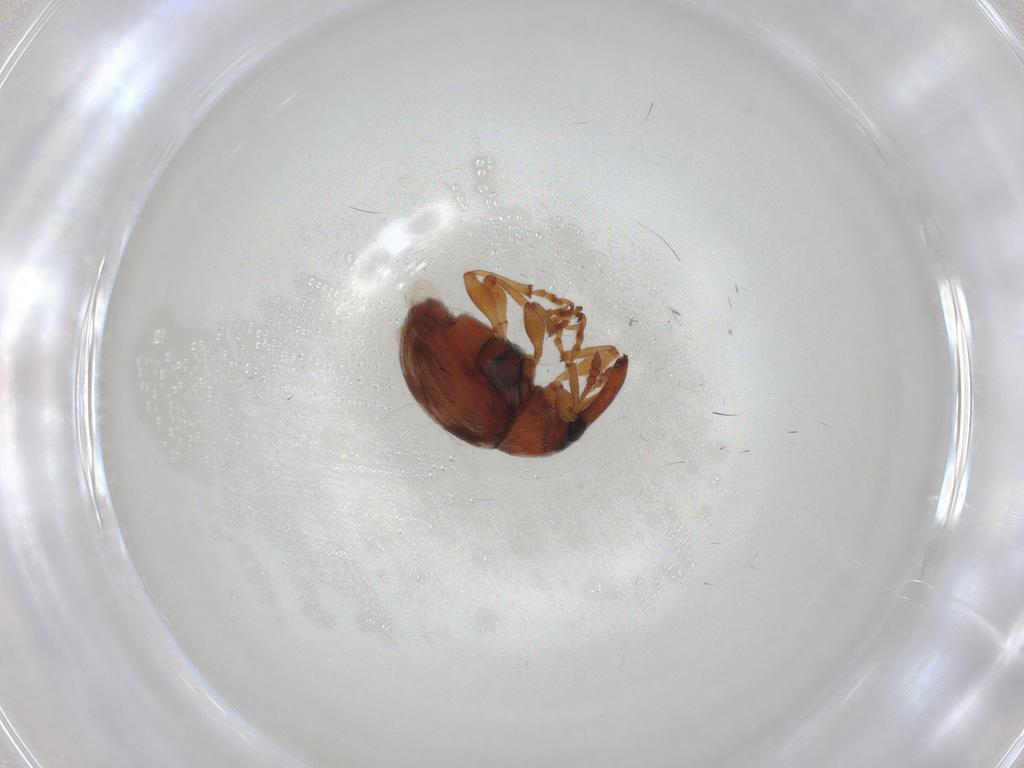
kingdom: Animalia
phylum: Arthropoda
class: Insecta
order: Coleoptera
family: Brentidae
